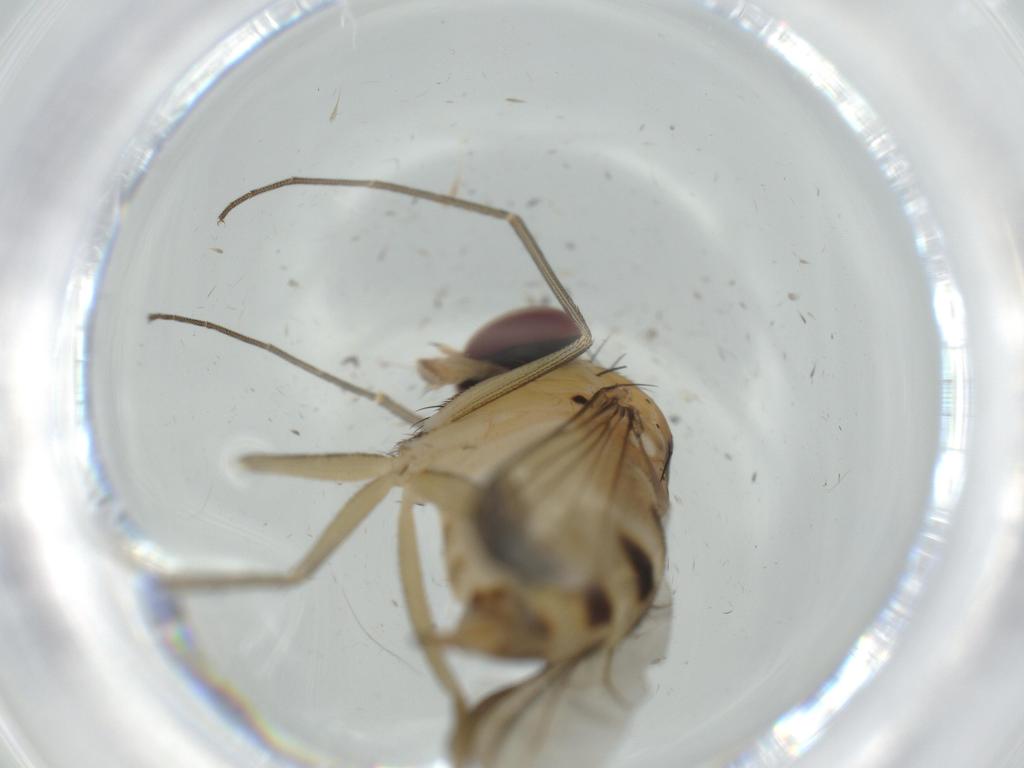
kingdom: Animalia
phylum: Arthropoda
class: Insecta
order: Diptera
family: Dolichopodidae
